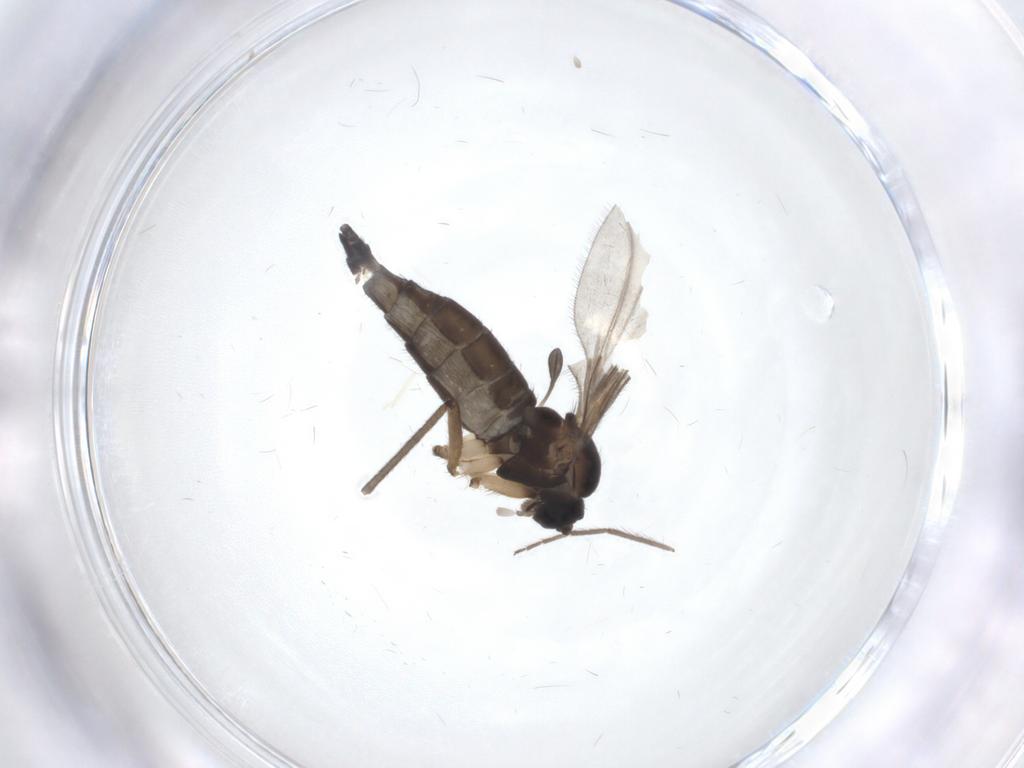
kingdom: Animalia
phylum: Arthropoda
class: Insecta
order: Diptera
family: Sciaridae
